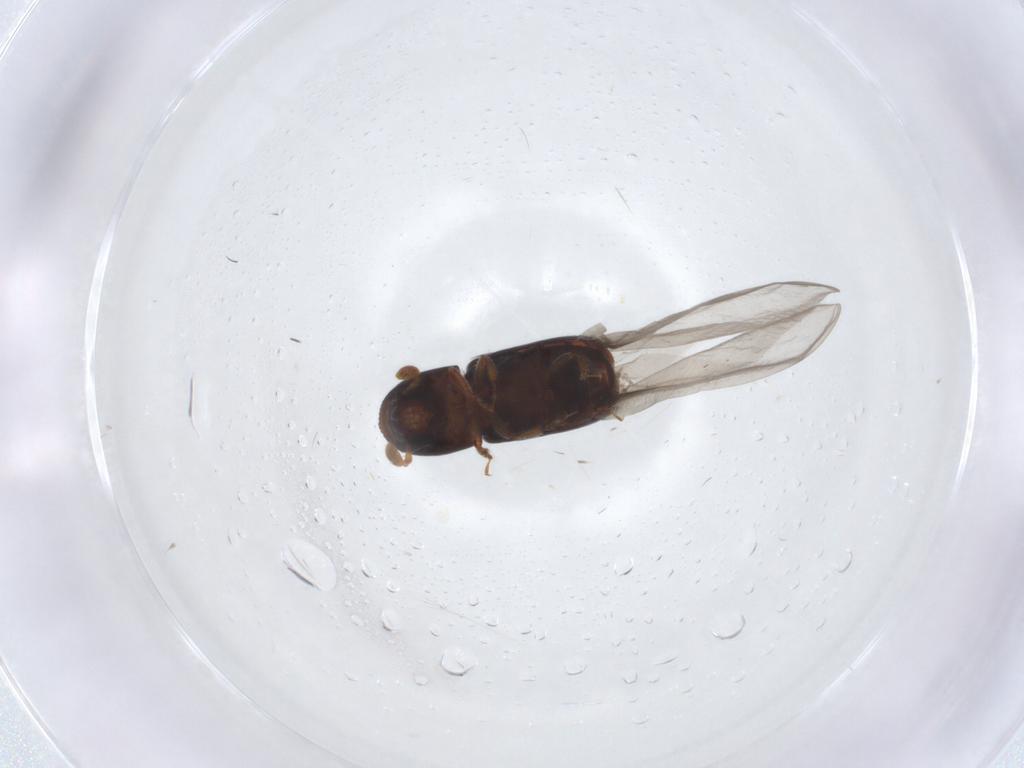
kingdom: Animalia
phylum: Arthropoda
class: Insecta
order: Coleoptera
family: Curculionidae
